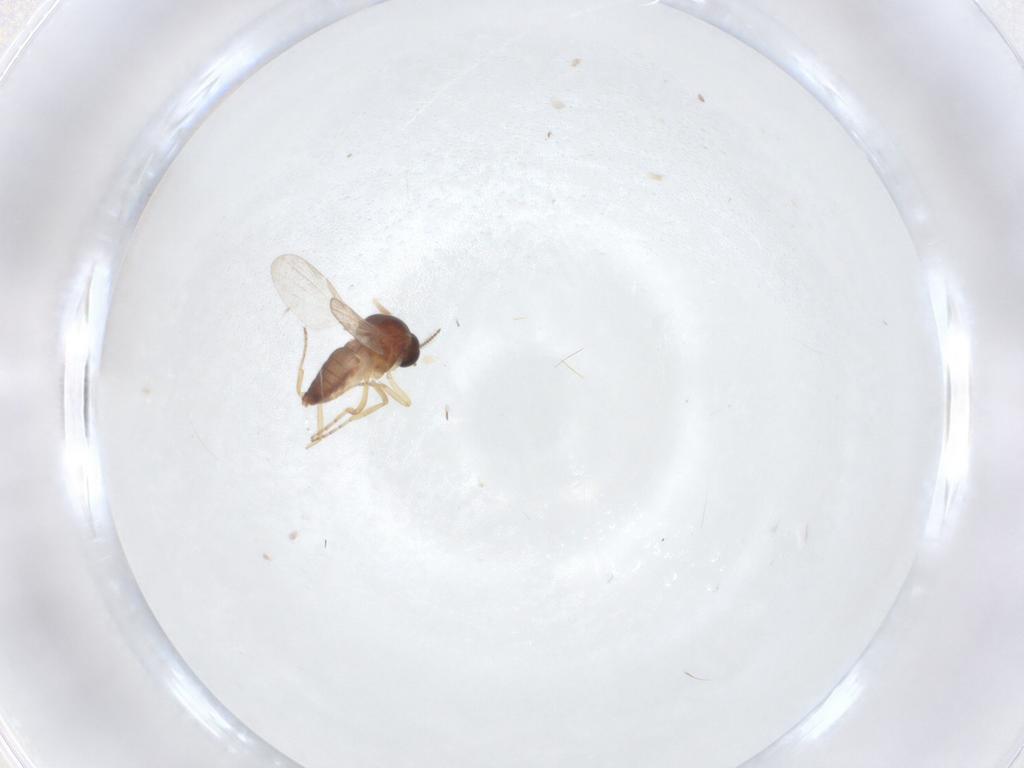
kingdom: Animalia
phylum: Arthropoda
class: Insecta
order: Diptera
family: Ceratopogonidae
